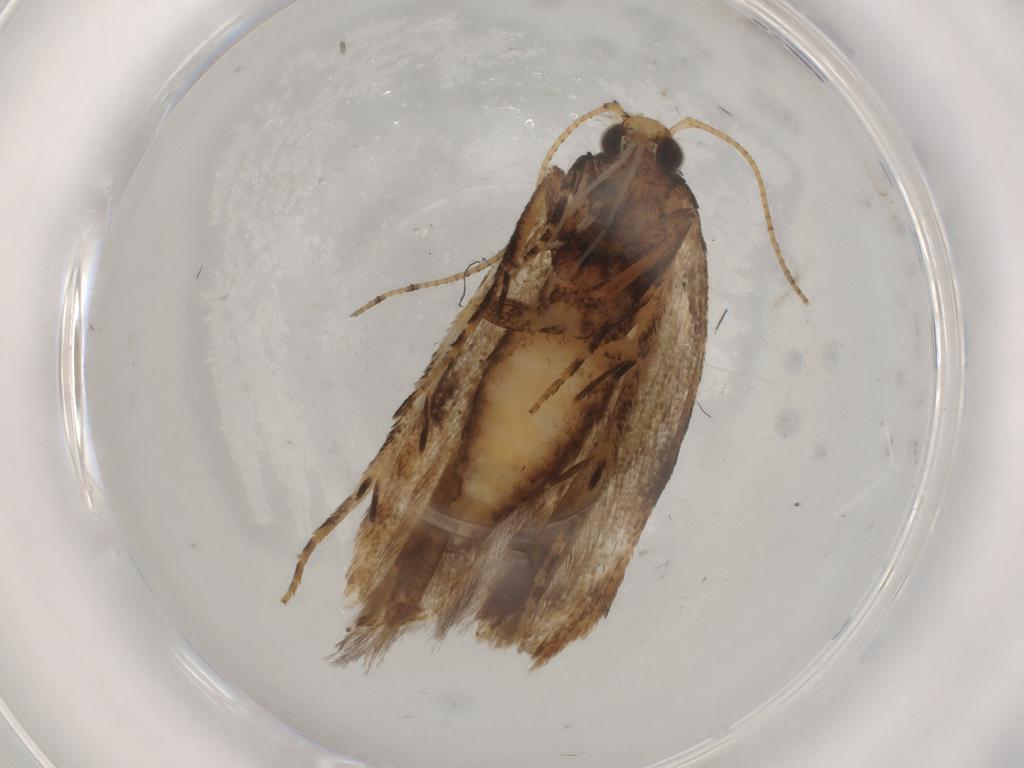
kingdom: Animalia
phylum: Arthropoda
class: Insecta
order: Lepidoptera
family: Gelechiidae
